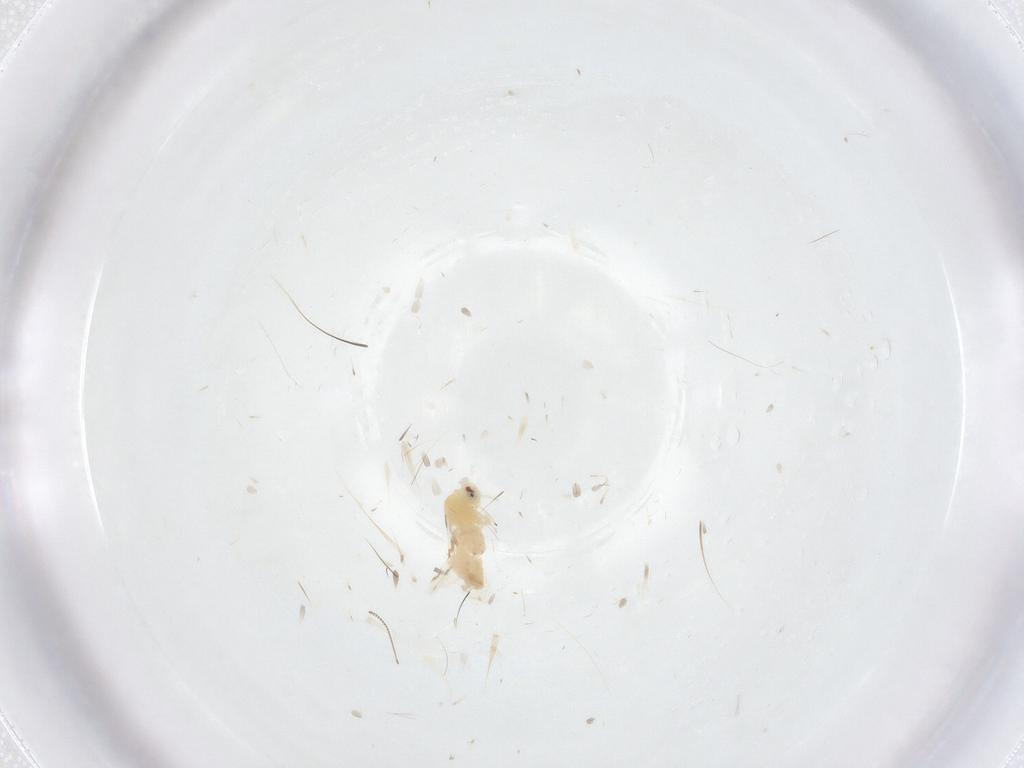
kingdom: Animalia
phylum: Arthropoda
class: Insecta
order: Hemiptera
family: Aleyrodidae
